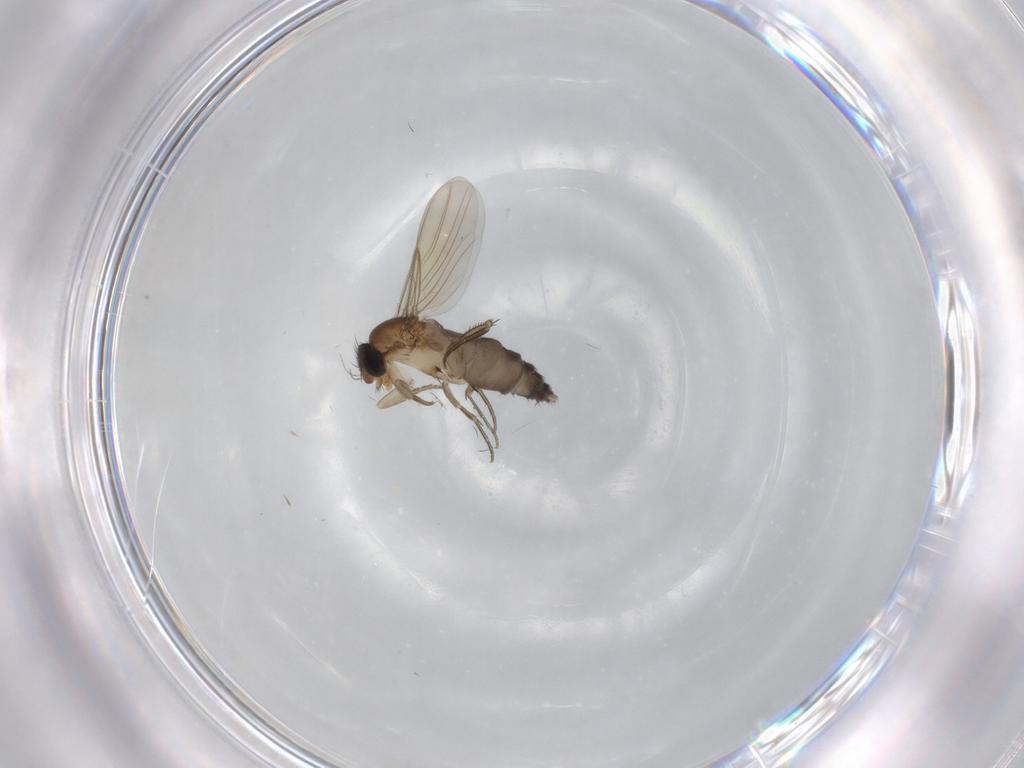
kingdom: Animalia
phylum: Arthropoda
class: Insecta
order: Diptera
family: Phoridae
